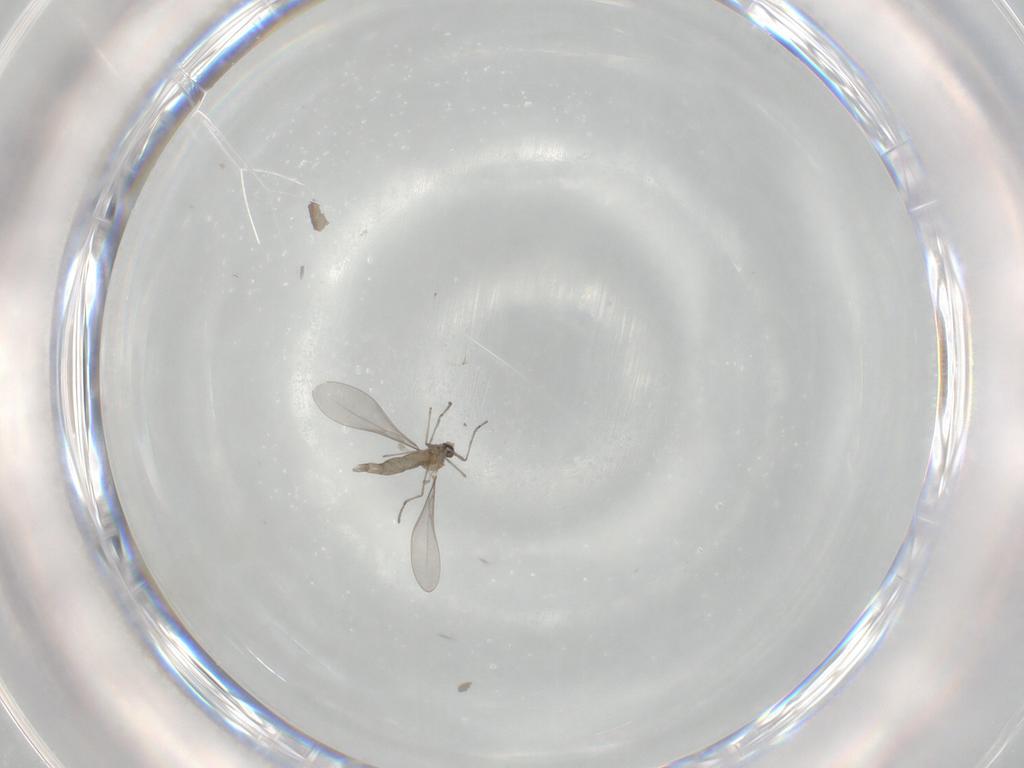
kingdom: Animalia
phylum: Arthropoda
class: Insecta
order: Diptera
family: Cecidomyiidae
